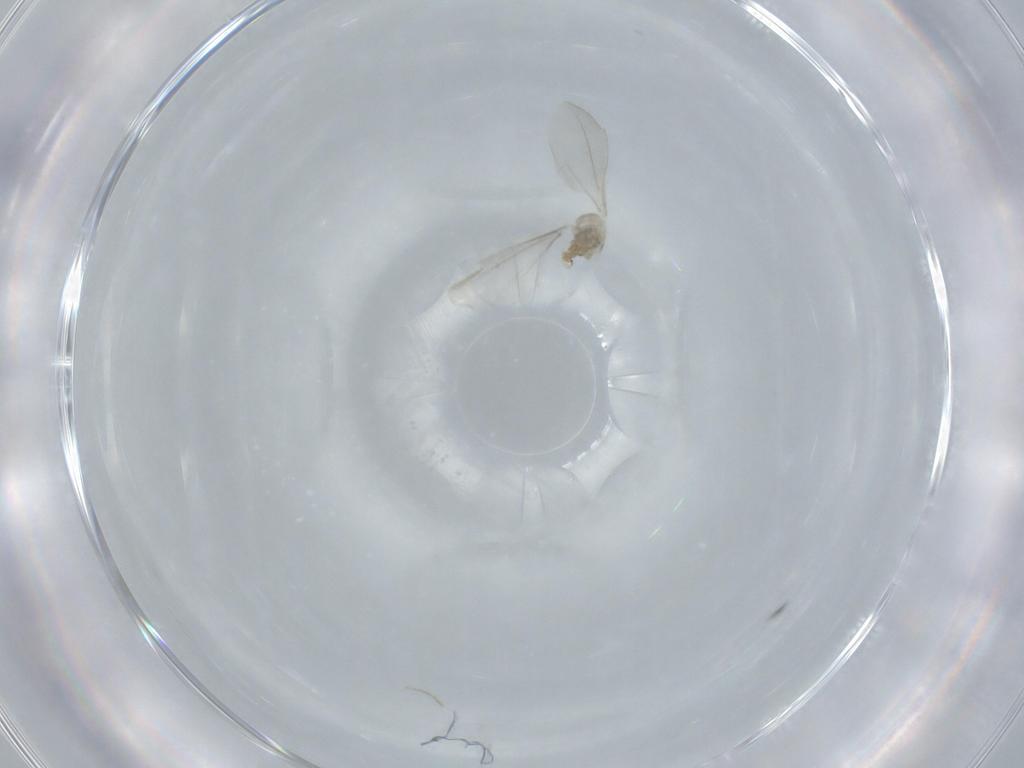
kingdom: Animalia
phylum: Arthropoda
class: Insecta
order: Diptera
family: Cecidomyiidae
